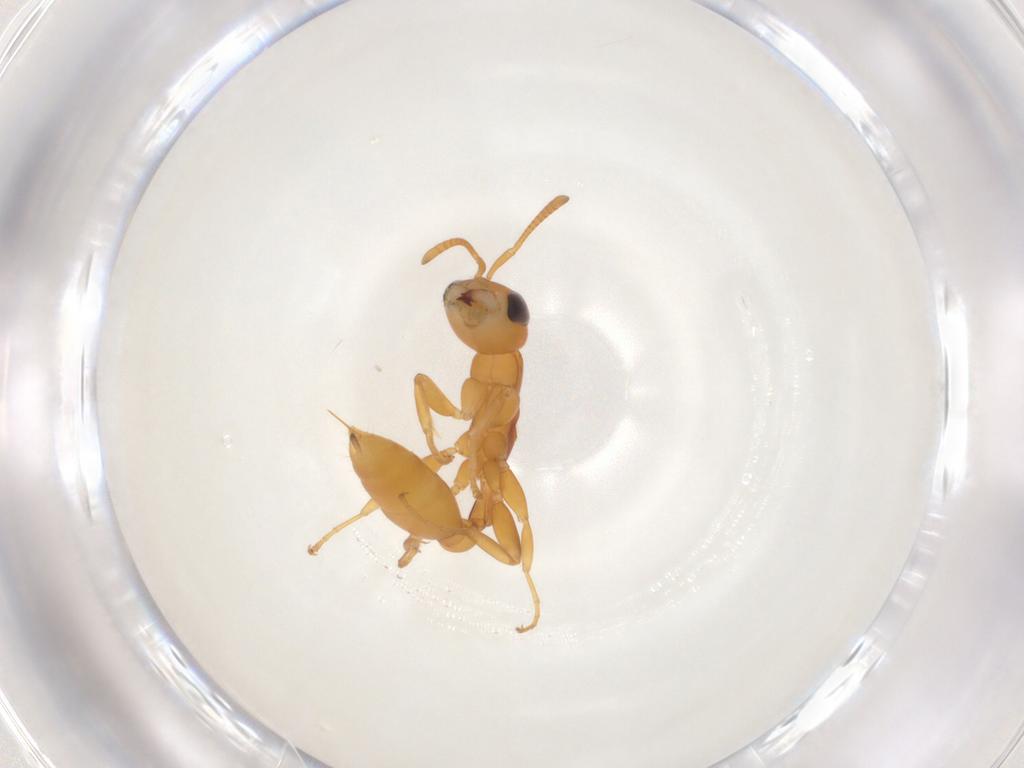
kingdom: Animalia
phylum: Arthropoda
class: Insecta
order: Hymenoptera
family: Formicidae
